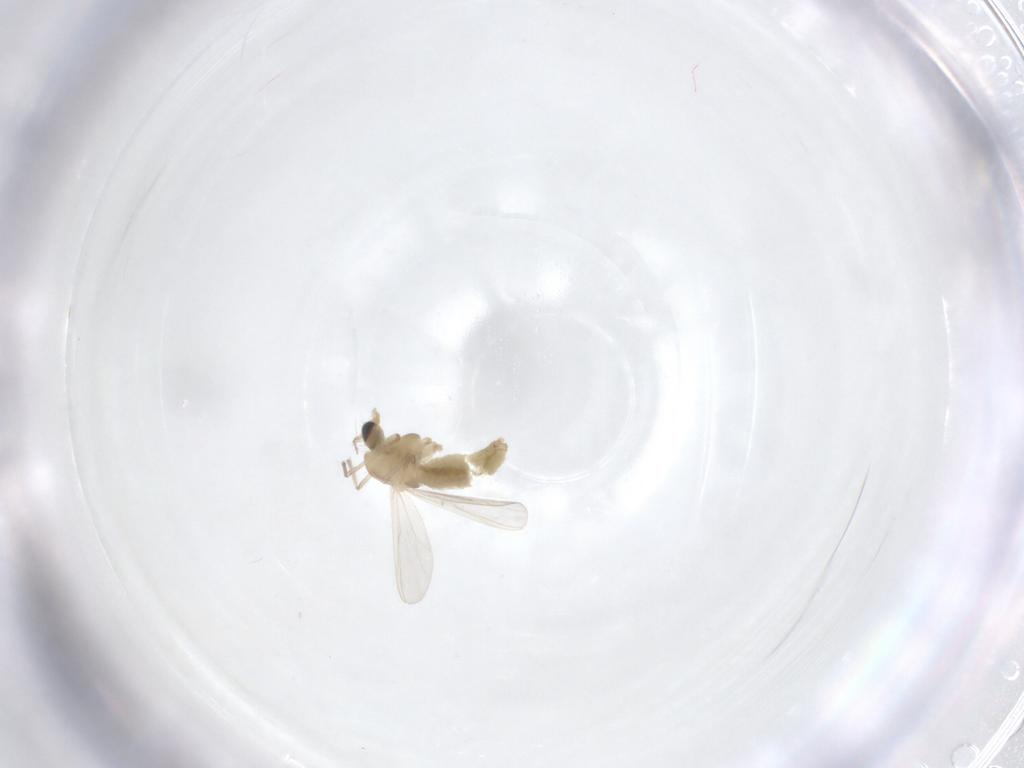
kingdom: Animalia
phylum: Arthropoda
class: Insecta
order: Diptera
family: Chironomidae
